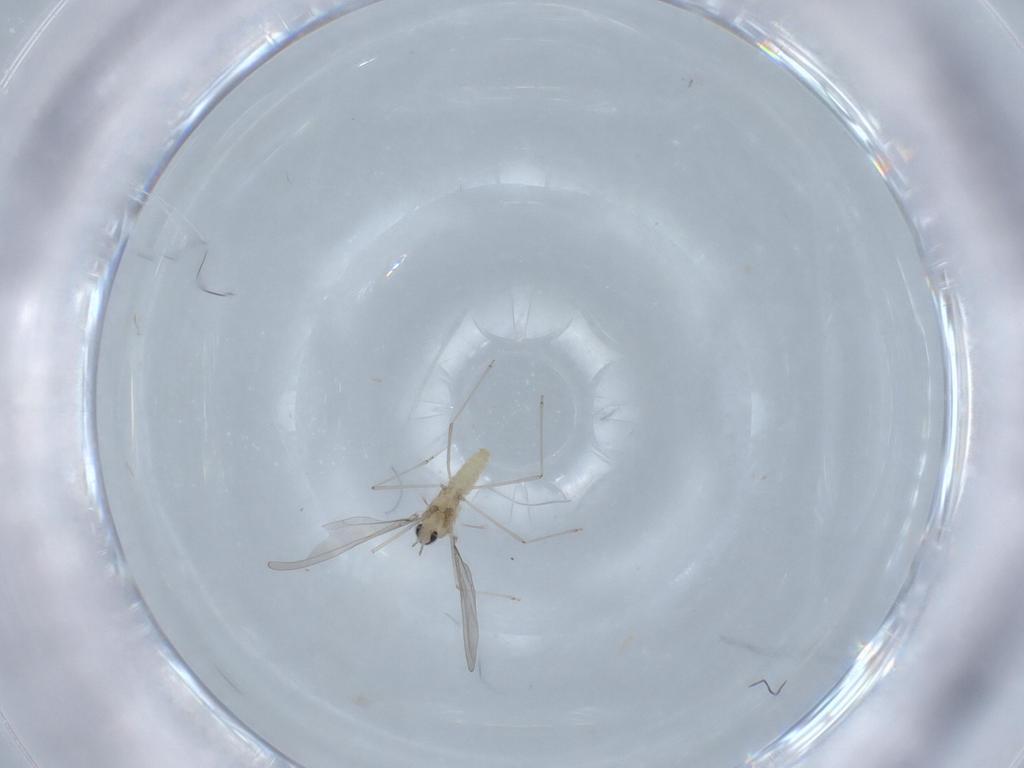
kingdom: Animalia
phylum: Arthropoda
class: Insecta
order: Diptera
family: Cecidomyiidae
